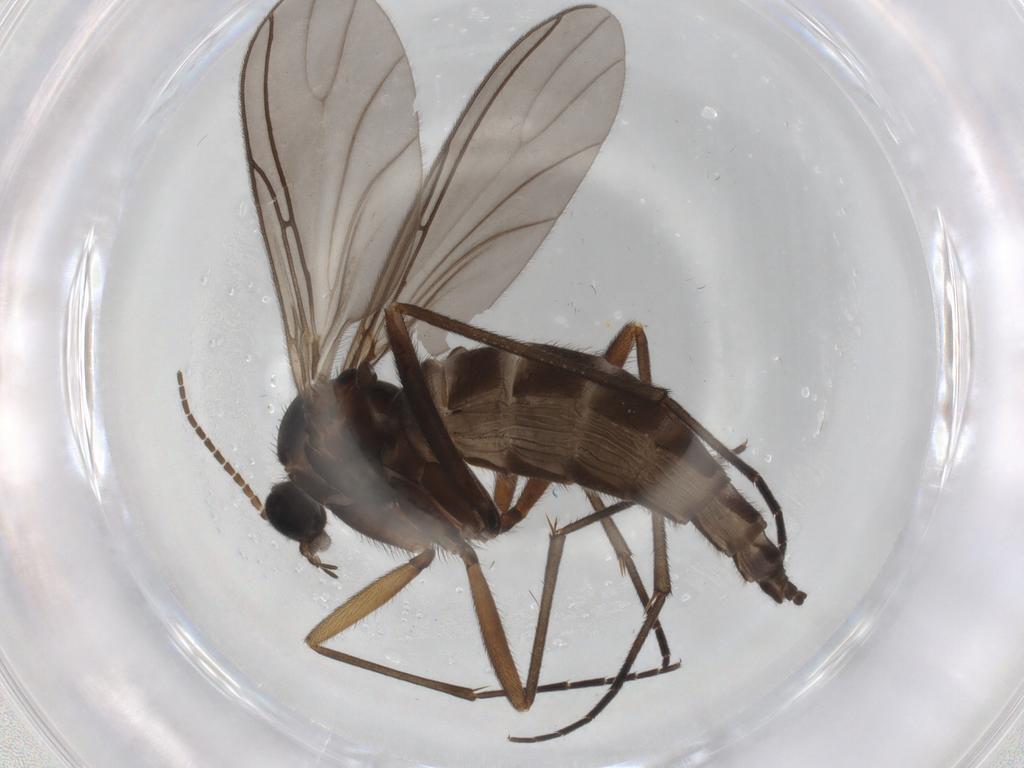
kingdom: Animalia
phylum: Arthropoda
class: Insecta
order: Diptera
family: Sciaridae
